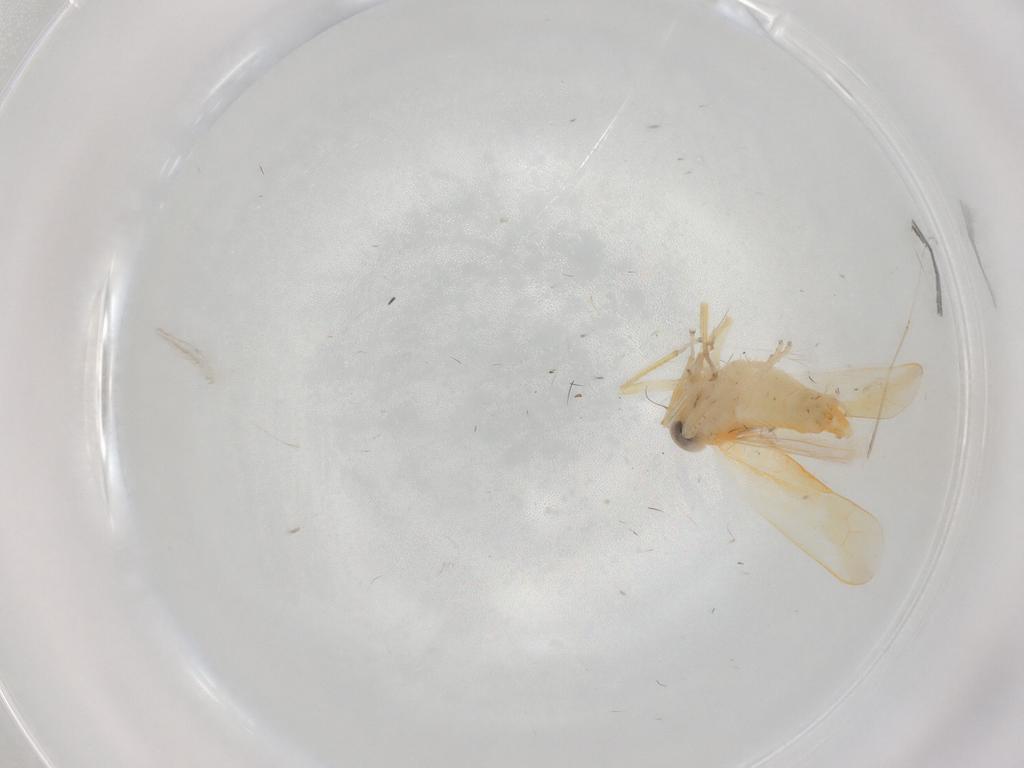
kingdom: Animalia
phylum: Arthropoda
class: Insecta
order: Hemiptera
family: Cicadellidae
